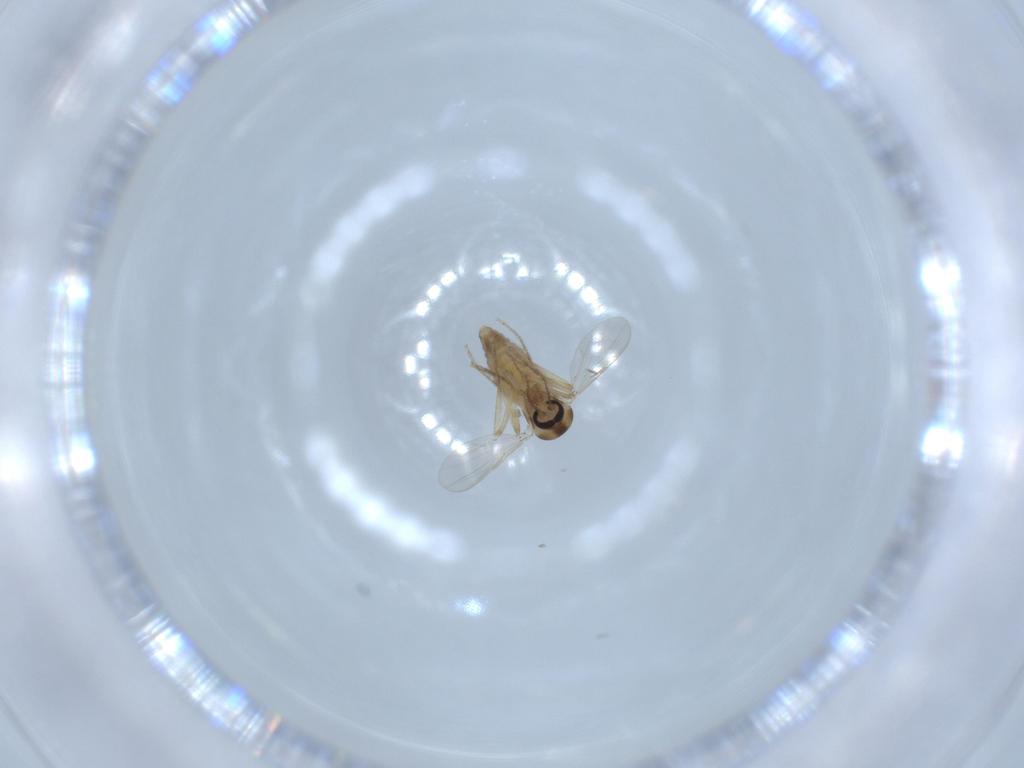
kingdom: Animalia
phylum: Arthropoda
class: Insecta
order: Diptera
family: Ceratopogonidae
